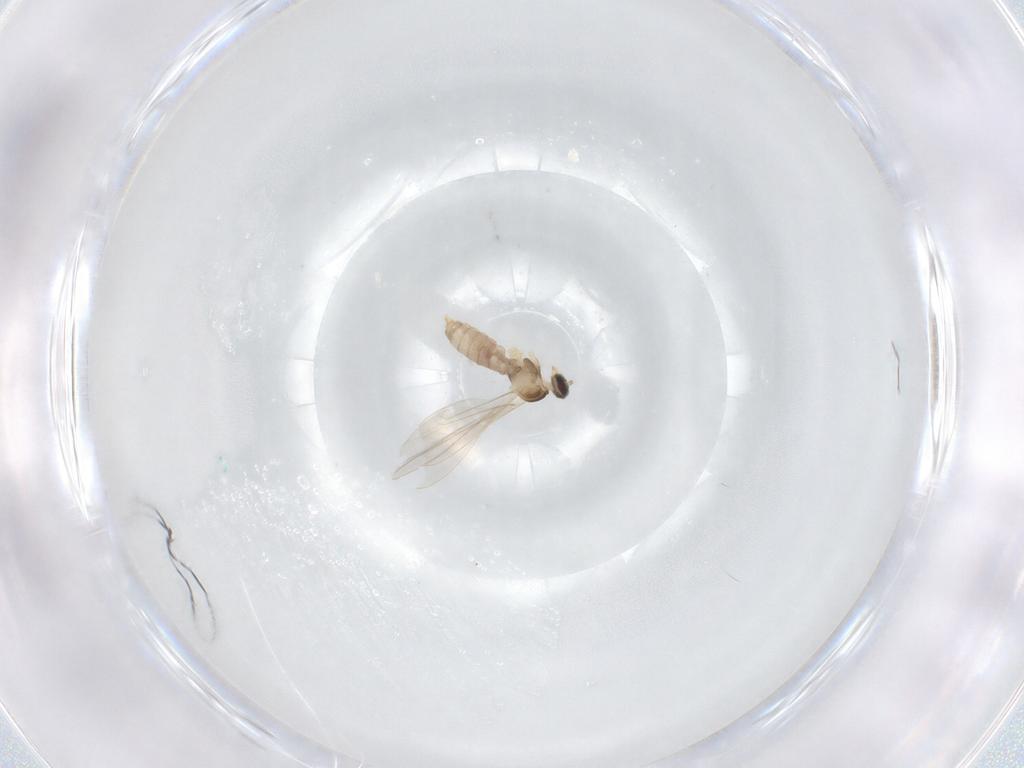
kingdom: Animalia
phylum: Arthropoda
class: Insecta
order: Diptera
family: Cecidomyiidae
